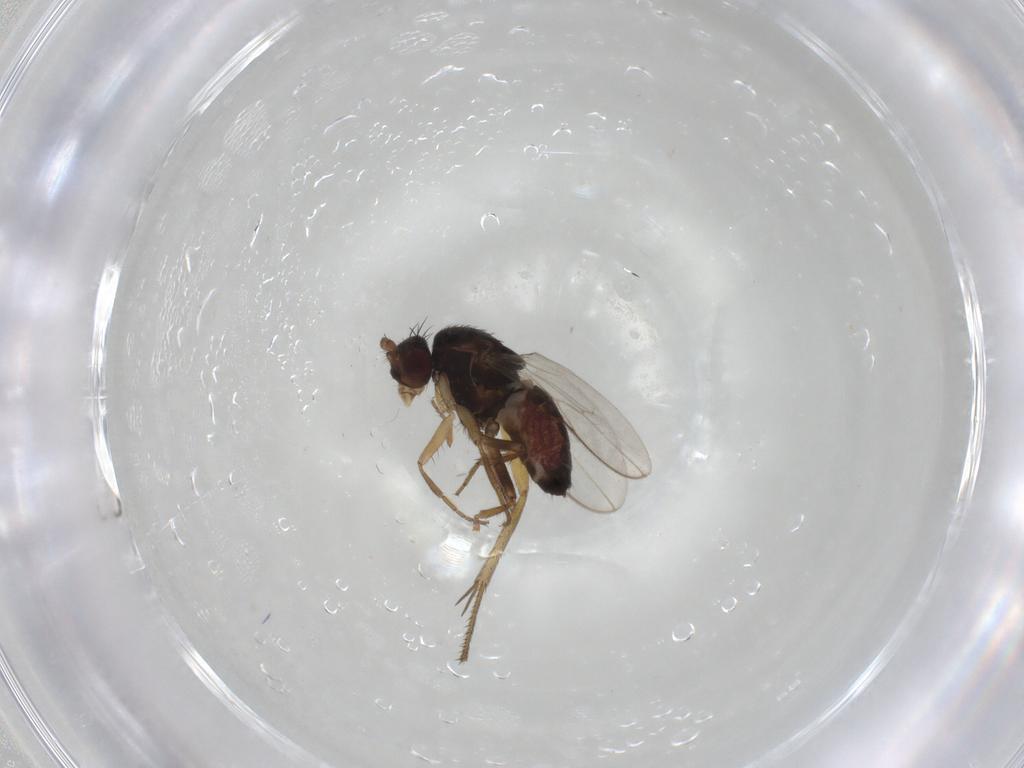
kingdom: Animalia
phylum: Arthropoda
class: Insecta
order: Diptera
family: Sphaeroceridae
